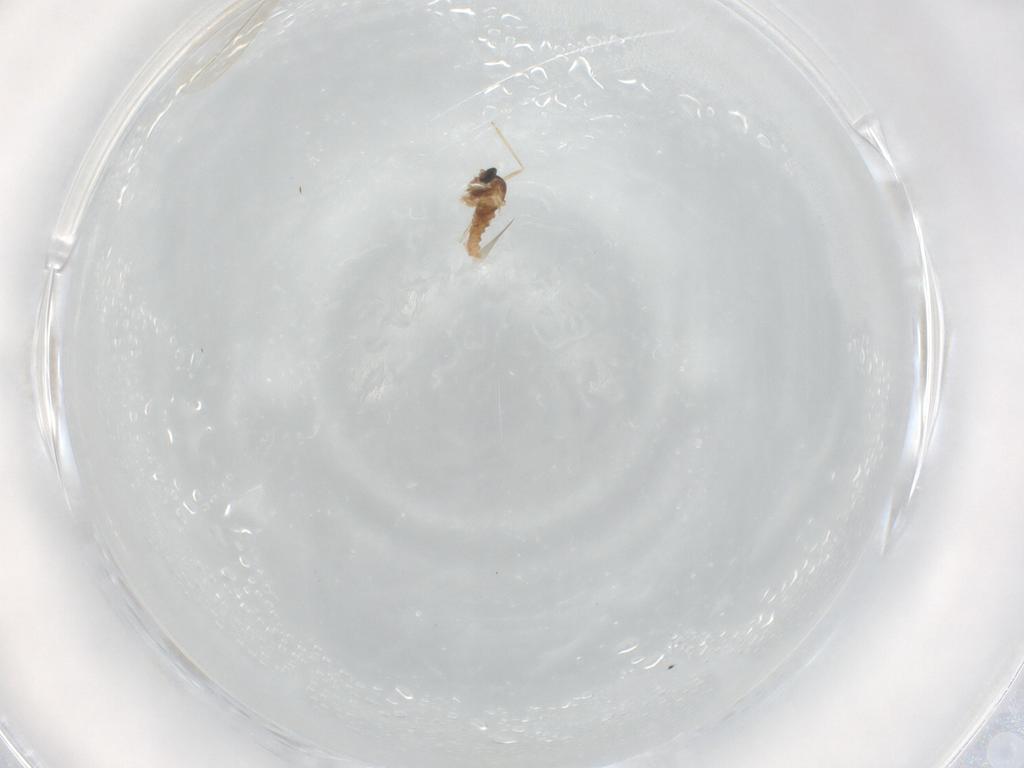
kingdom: Animalia
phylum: Arthropoda
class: Insecta
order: Diptera
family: Cecidomyiidae
